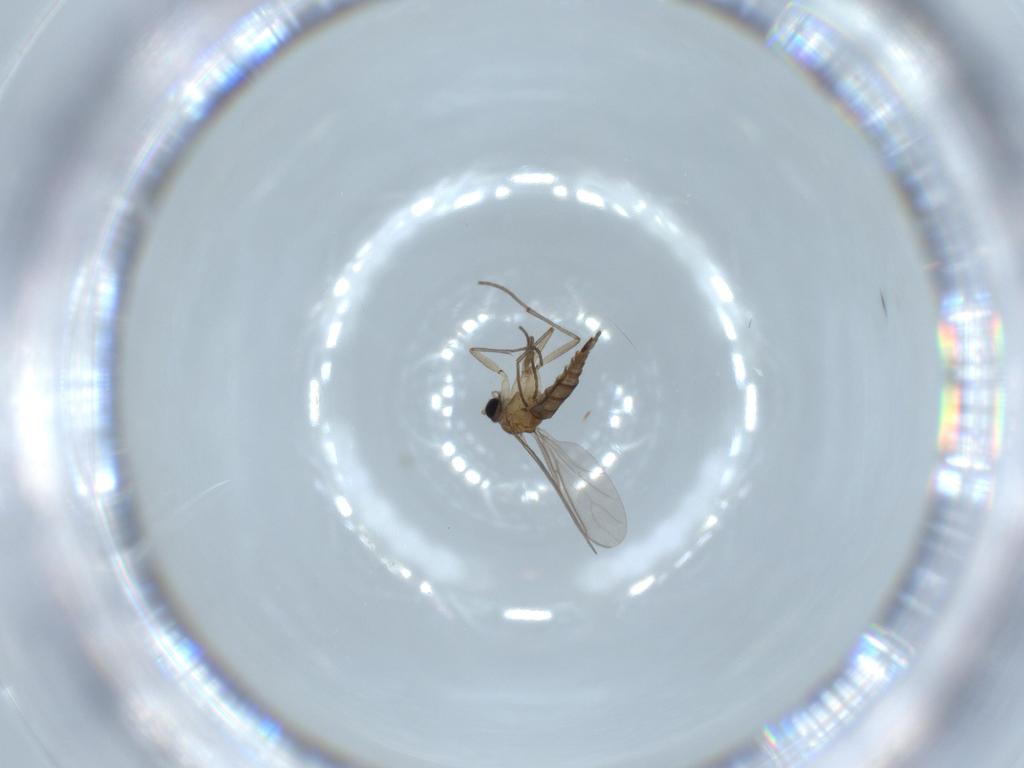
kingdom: Animalia
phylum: Arthropoda
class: Insecta
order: Diptera
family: Sciaridae
